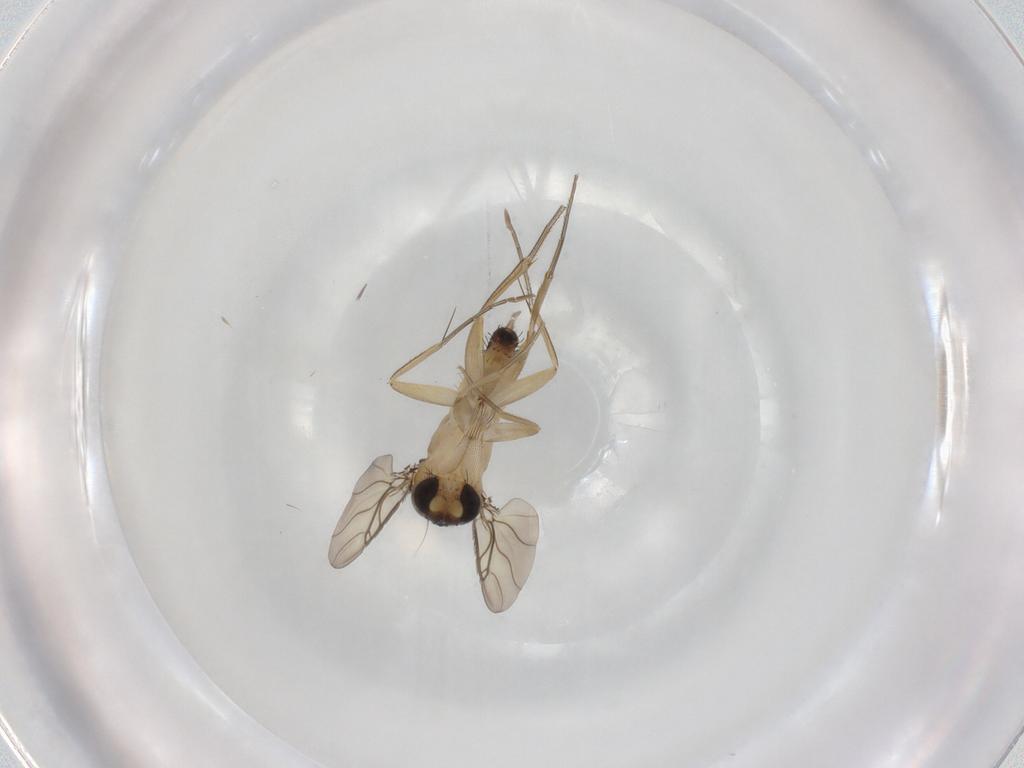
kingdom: Animalia
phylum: Arthropoda
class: Insecta
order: Diptera
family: Phoridae
